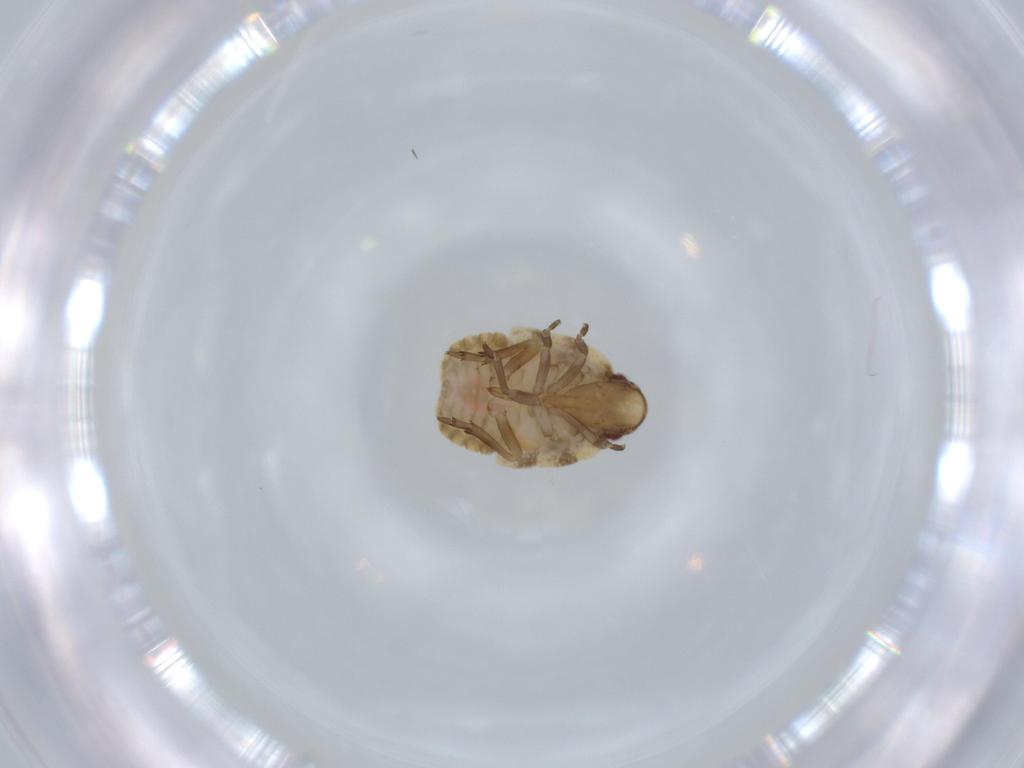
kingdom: Animalia
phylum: Arthropoda
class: Insecta
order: Hemiptera
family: Flatidae
